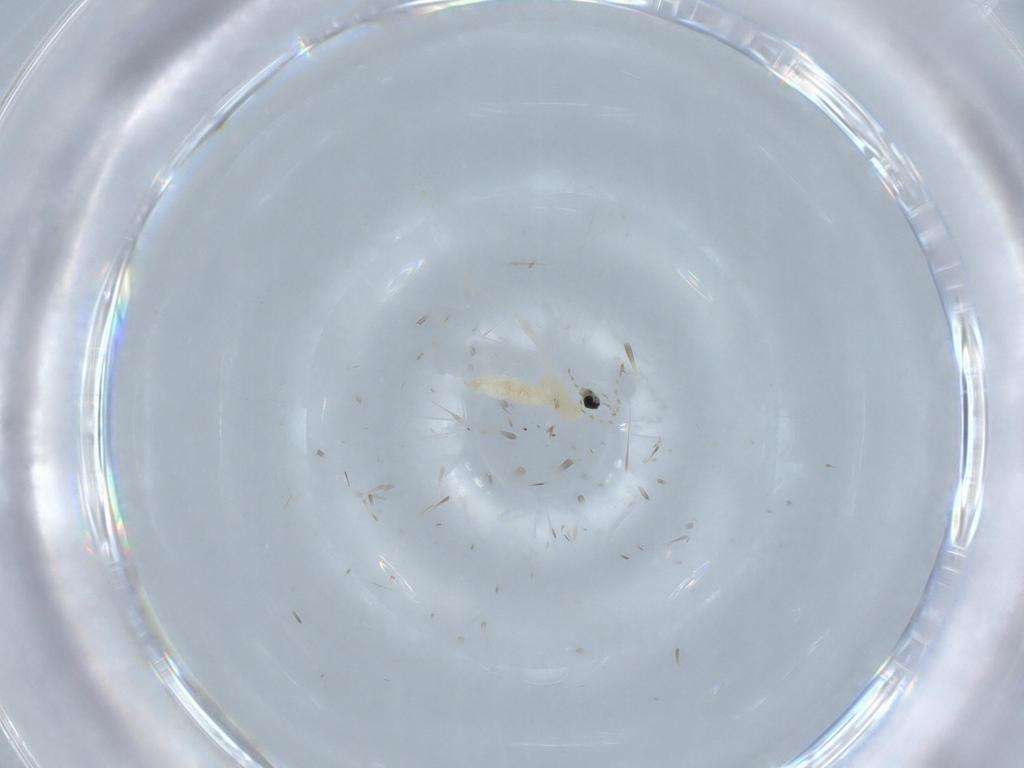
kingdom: Animalia
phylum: Arthropoda
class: Insecta
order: Diptera
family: Cecidomyiidae
